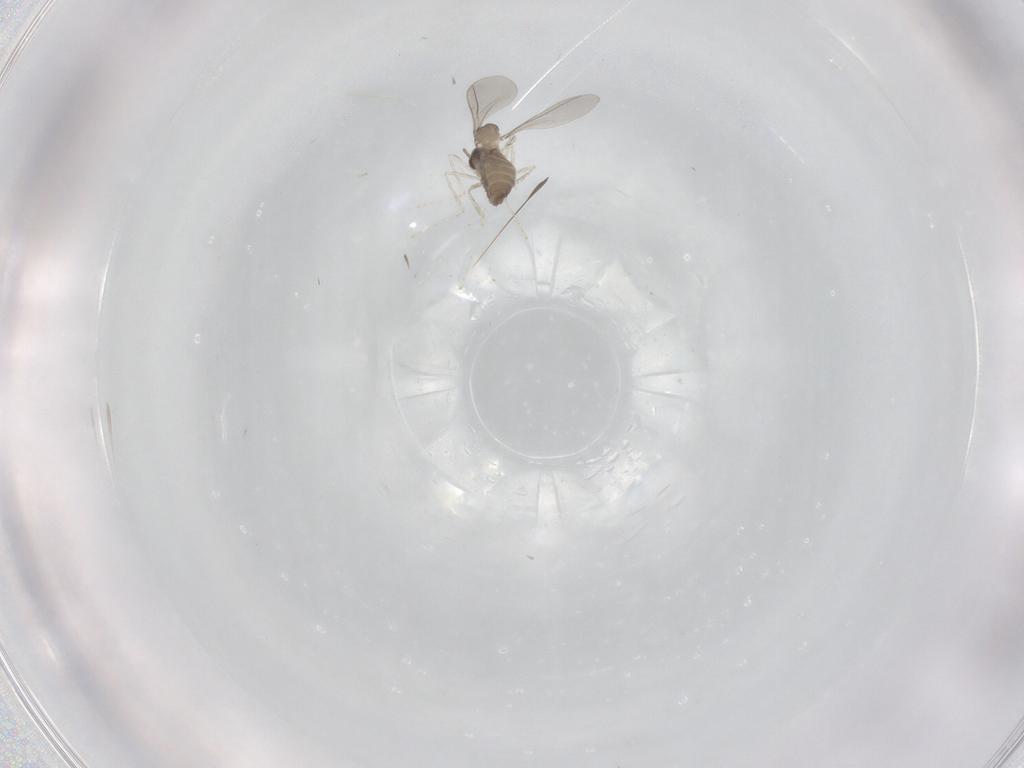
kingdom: Animalia
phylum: Arthropoda
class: Insecta
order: Diptera
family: Cecidomyiidae
